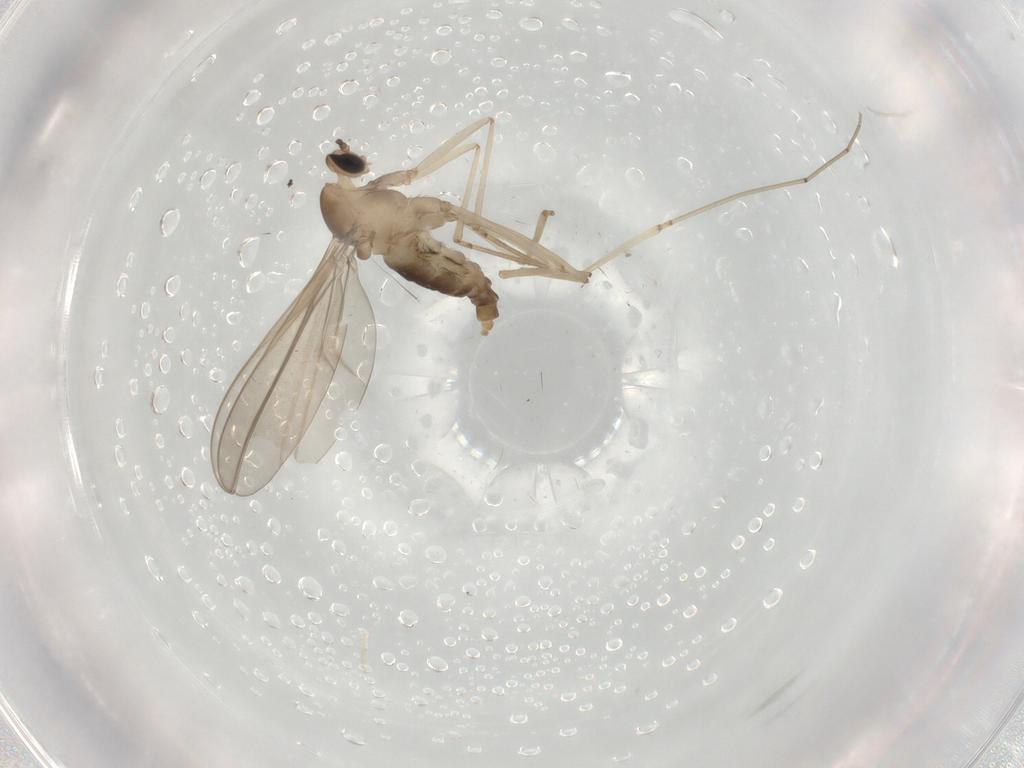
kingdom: Animalia
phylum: Arthropoda
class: Insecta
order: Diptera
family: Cecidomyiidae
